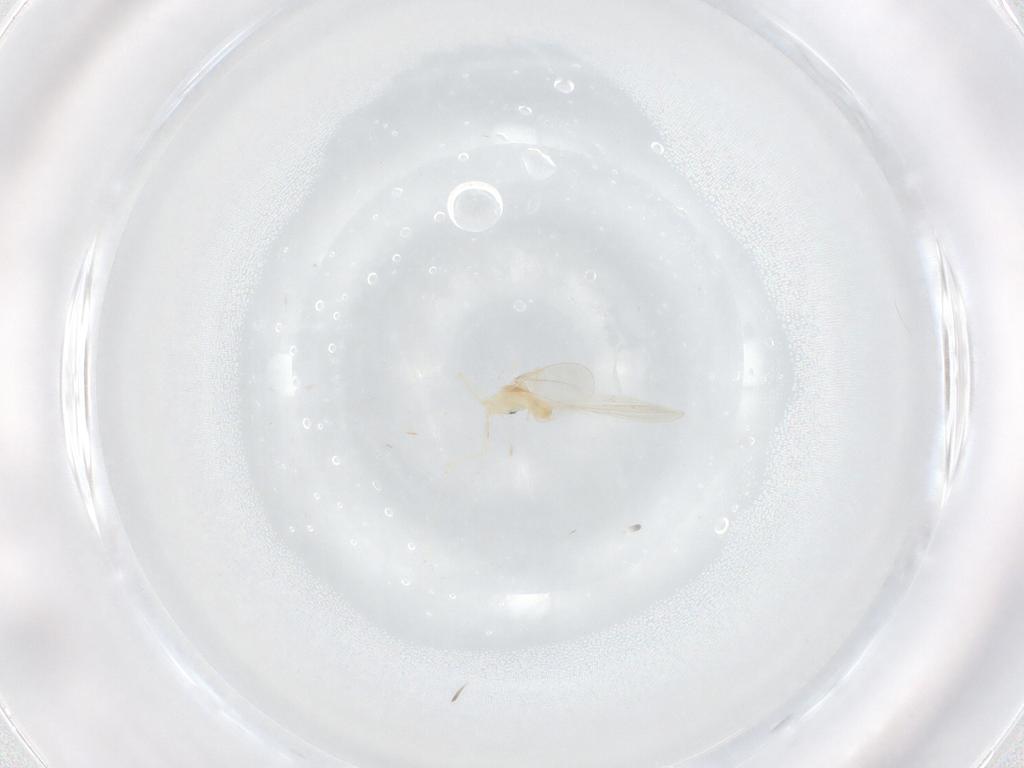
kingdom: Animalia
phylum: Arthropoda
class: Insecta
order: Diptera
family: Cecidomyiidae
